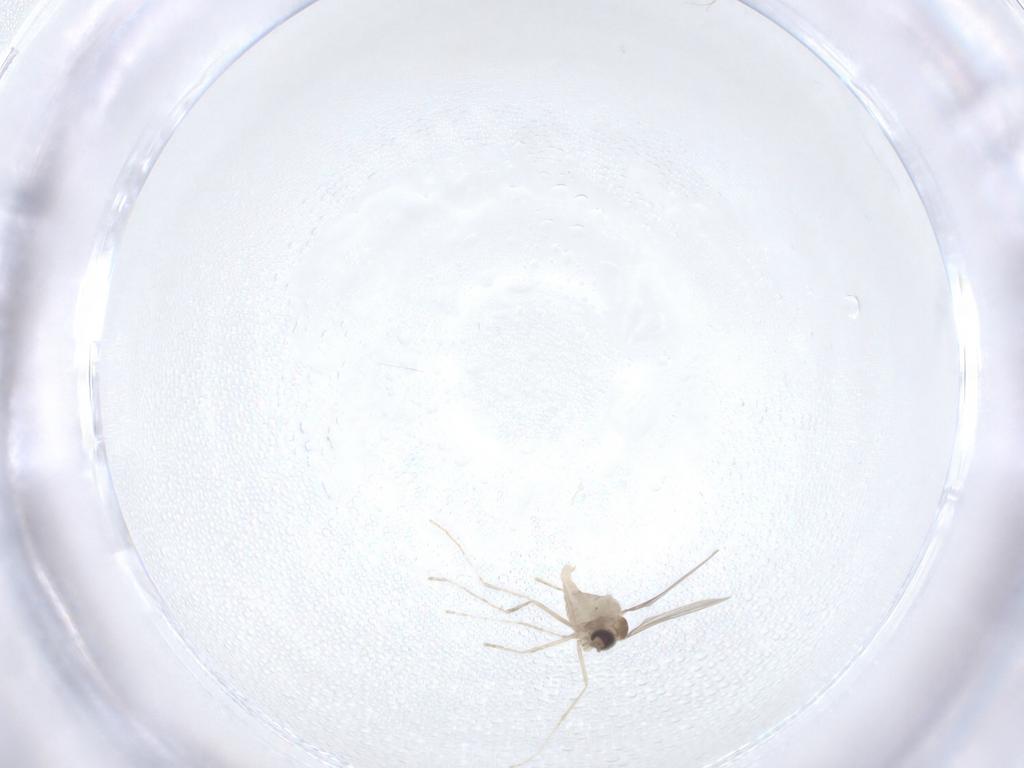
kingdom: Animalia
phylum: Arthropoda
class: Insecta
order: Diptera
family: Cecidomyiidae
